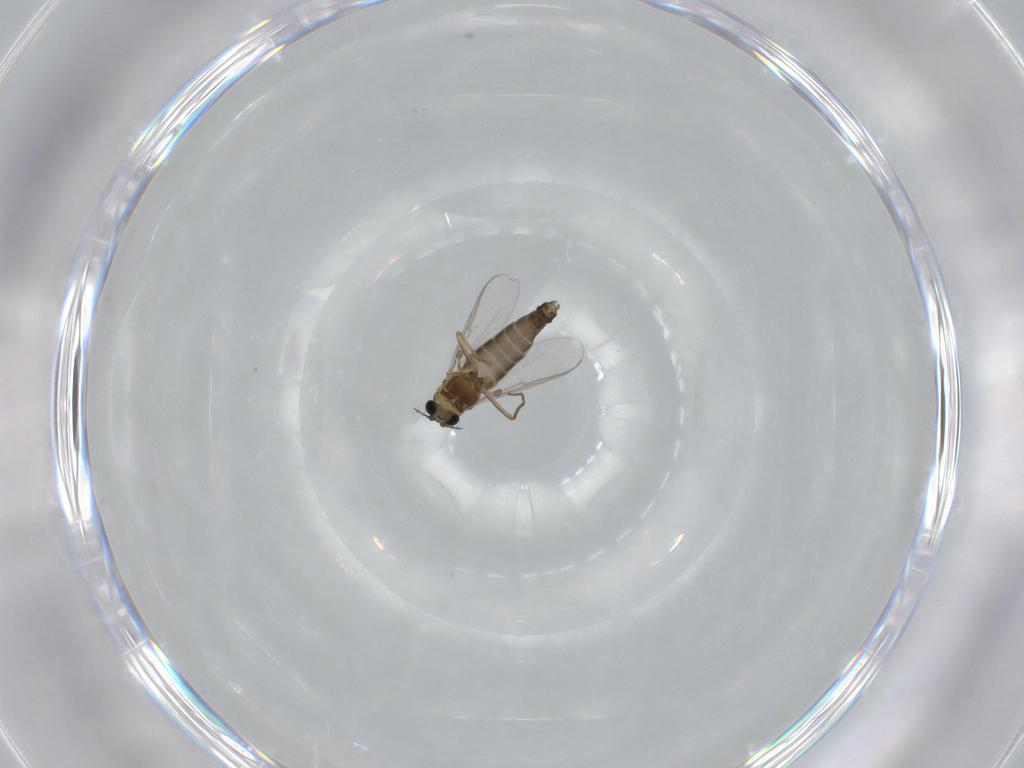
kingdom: Animalia
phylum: Arthropoda
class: Insecta
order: Diptera
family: Chironomidae
